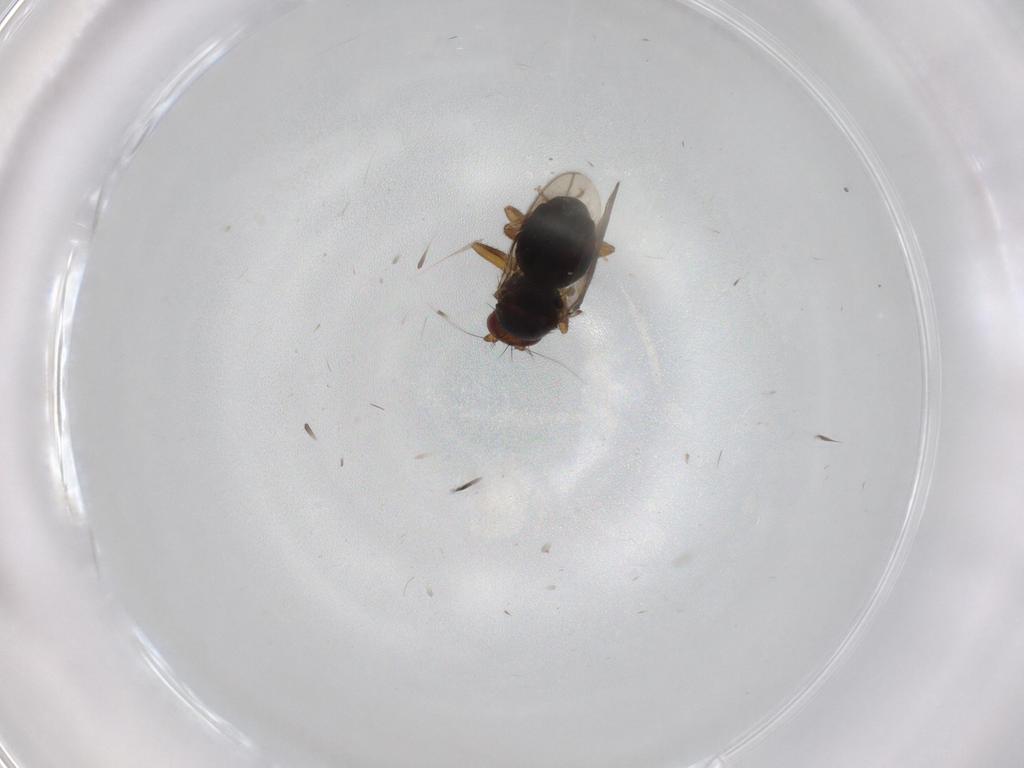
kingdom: Animalia
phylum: Arthropoda
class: Insecta
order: Diptera
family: Sphaeroceridae
